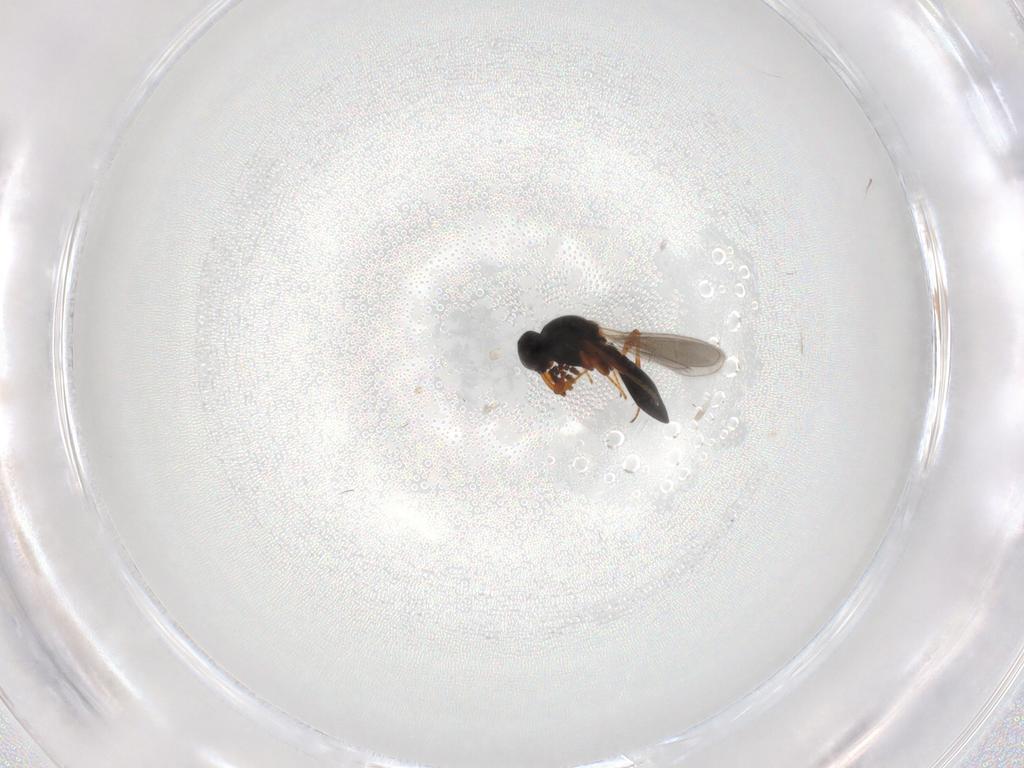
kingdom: Animalia
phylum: Arthropoda
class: Insecta
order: Hymenoptera
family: Platygastridae
